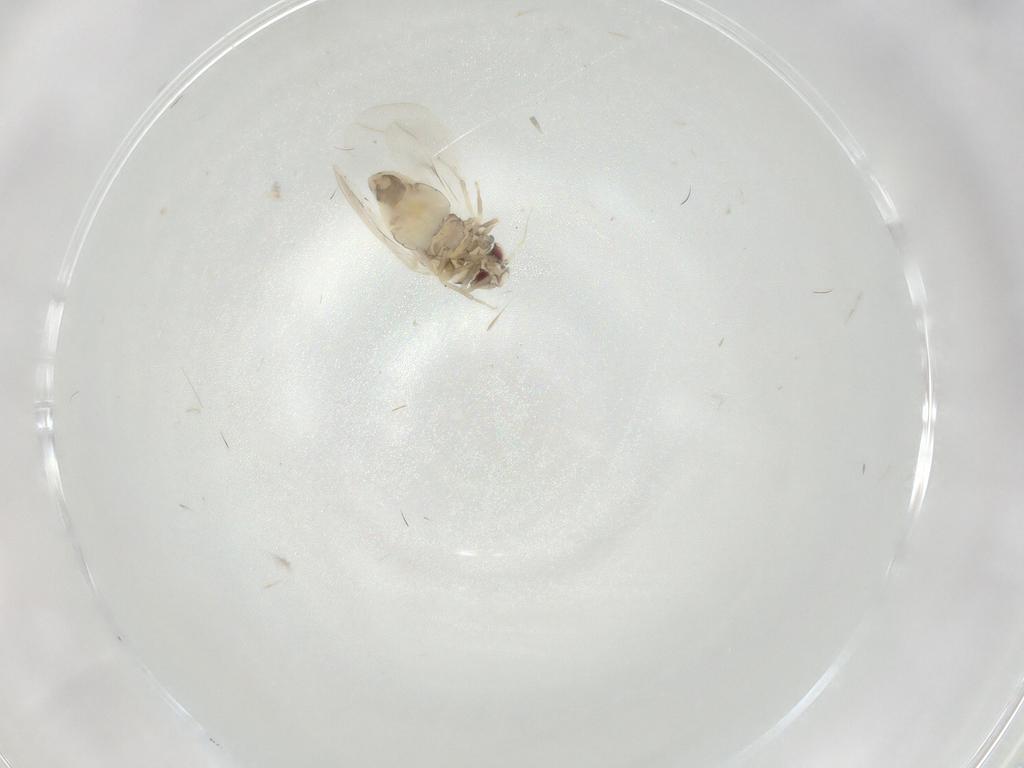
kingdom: Animalia
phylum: Arthropoda
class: Insecta
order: Hemiptera
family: Aleyrodidae
